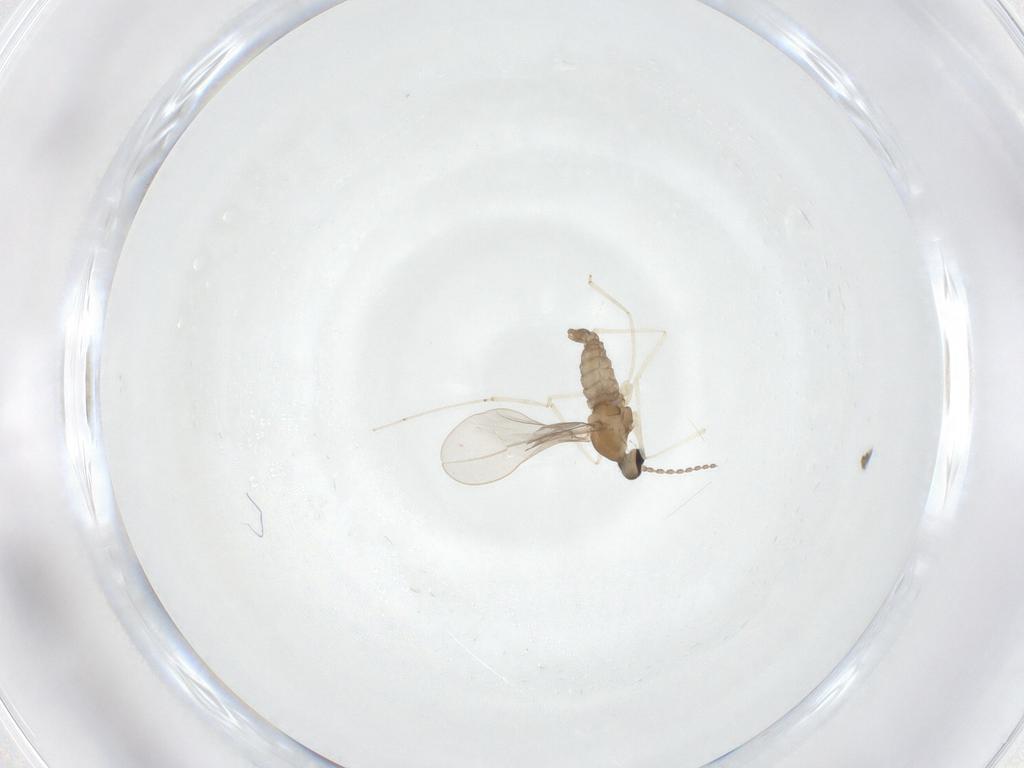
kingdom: Animalia
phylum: Arthropoda
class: Insecta
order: Diptera
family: Cecidomyiidae
